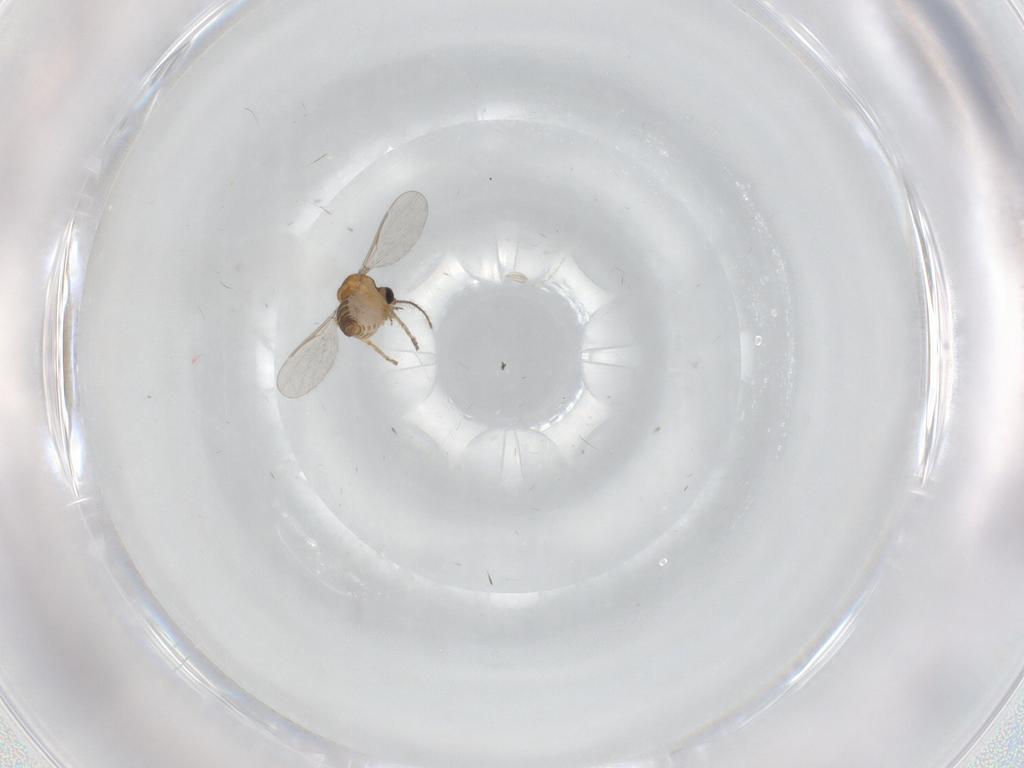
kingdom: Animalia
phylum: Arthropoda
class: Insecta
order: Diptera
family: Ceratopogonidae
